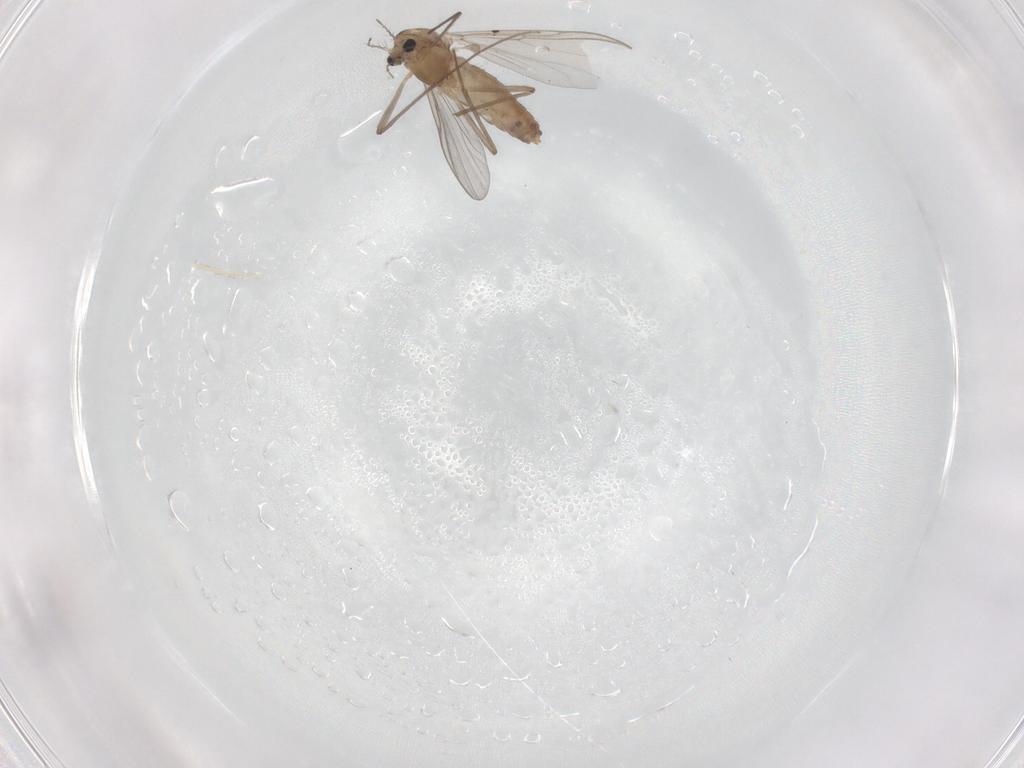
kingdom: Animalia
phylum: Arthropoda
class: Insecta
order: Diptera
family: Chironomidae
